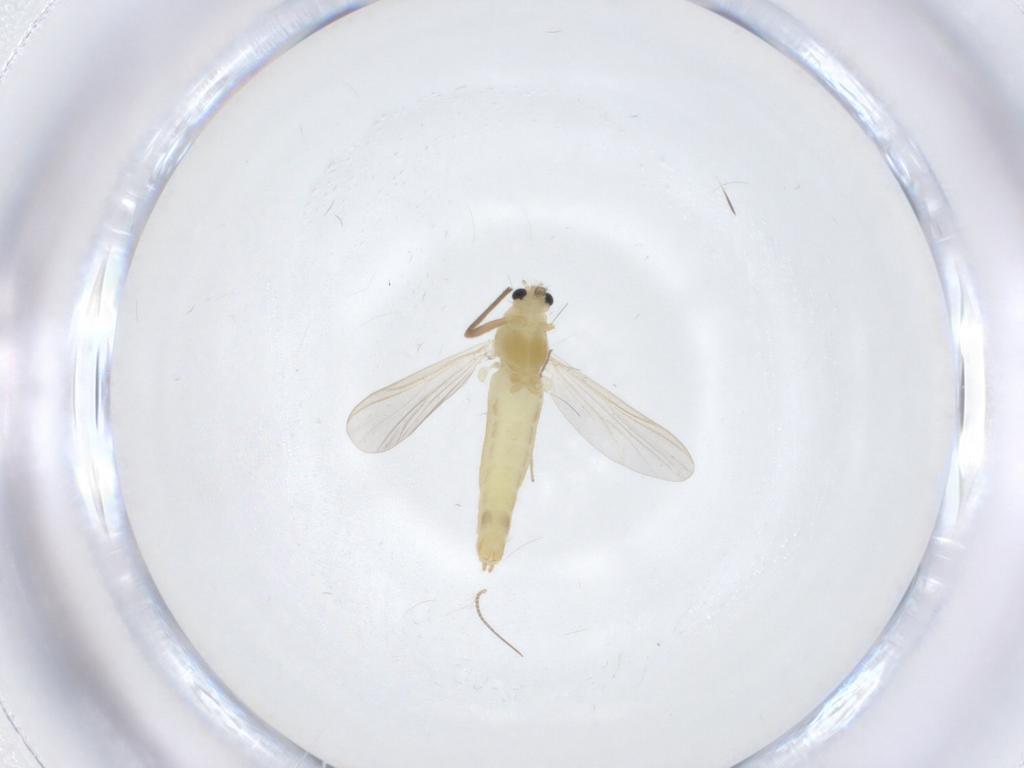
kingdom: Animalia
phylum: Arthropoda
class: Insecta
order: Diptera
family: Chironomidae
